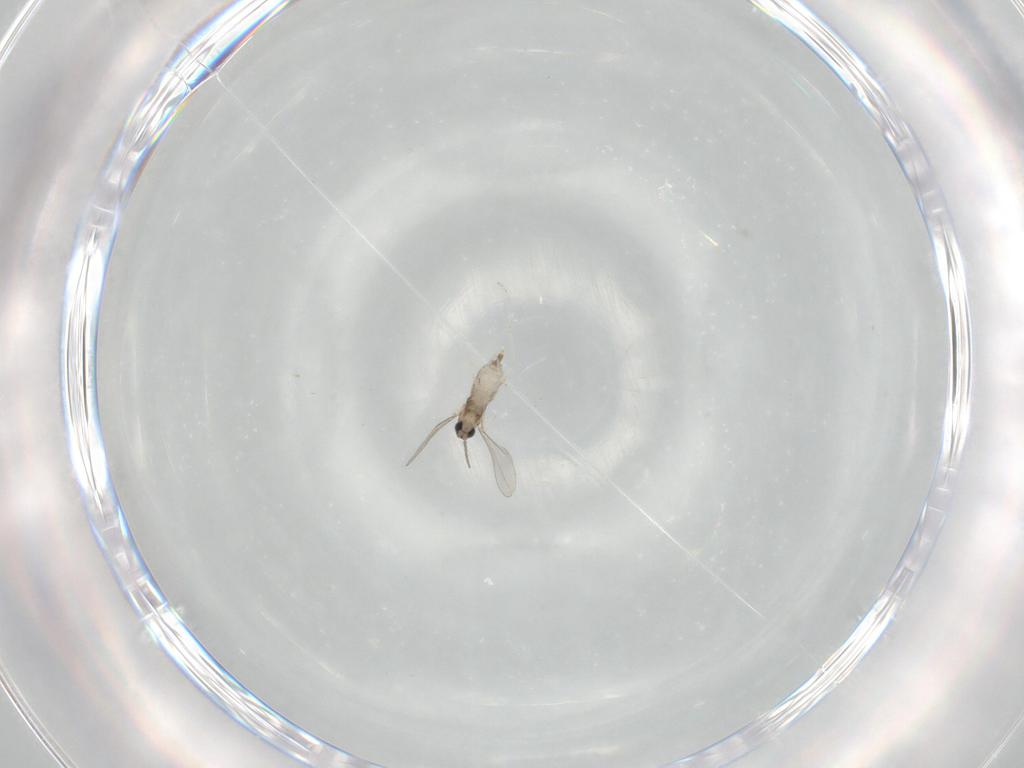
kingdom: Animalia
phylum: Arthropoda
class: Insecta
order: Diptera
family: Cecidomyiidae
